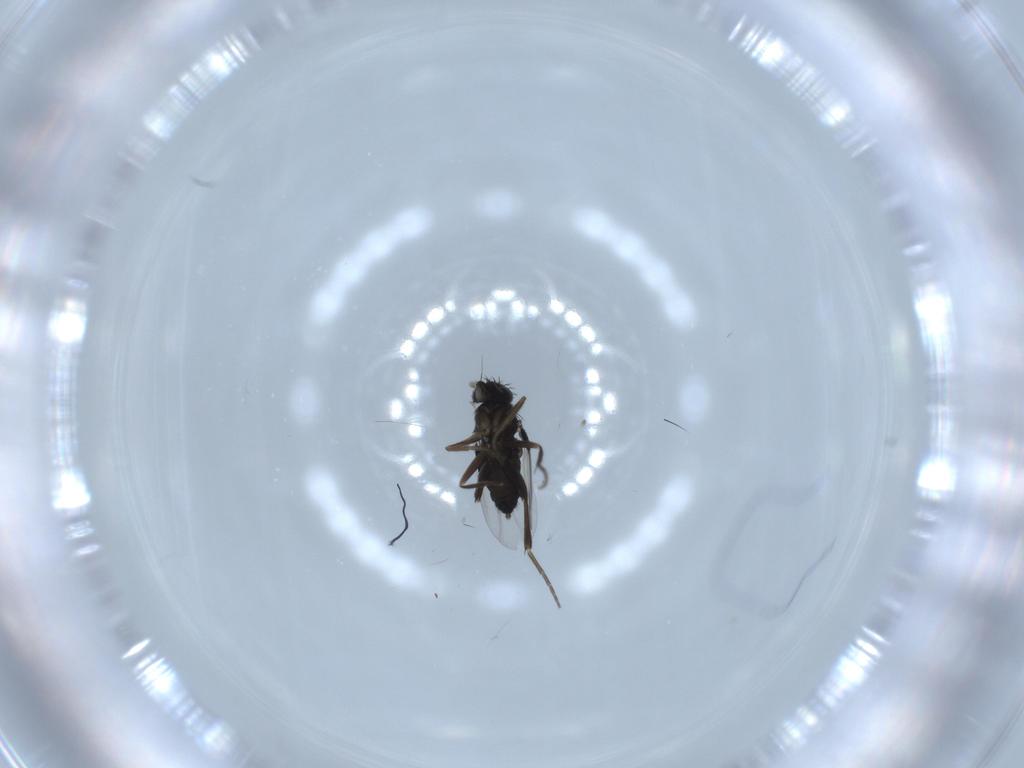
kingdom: Animalia
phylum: Arthropoda
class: Insecta
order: Diptera
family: Phoridae
